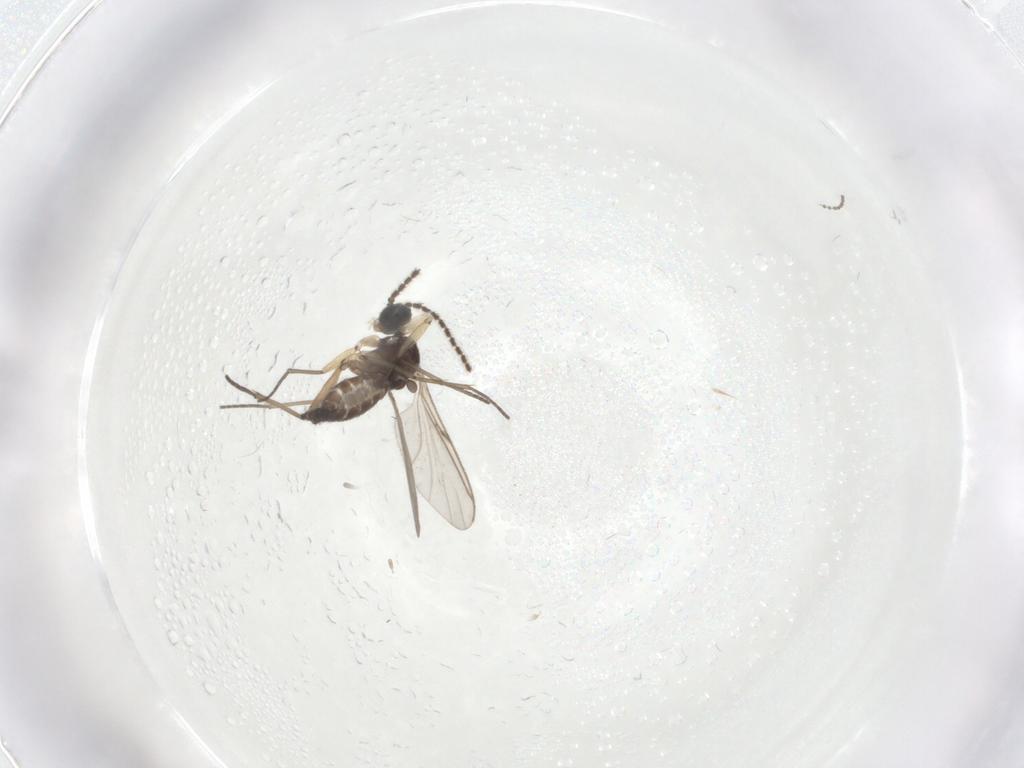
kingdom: Animalia
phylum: Arthropoda
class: Insecta
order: Diptera
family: Sciaridae
